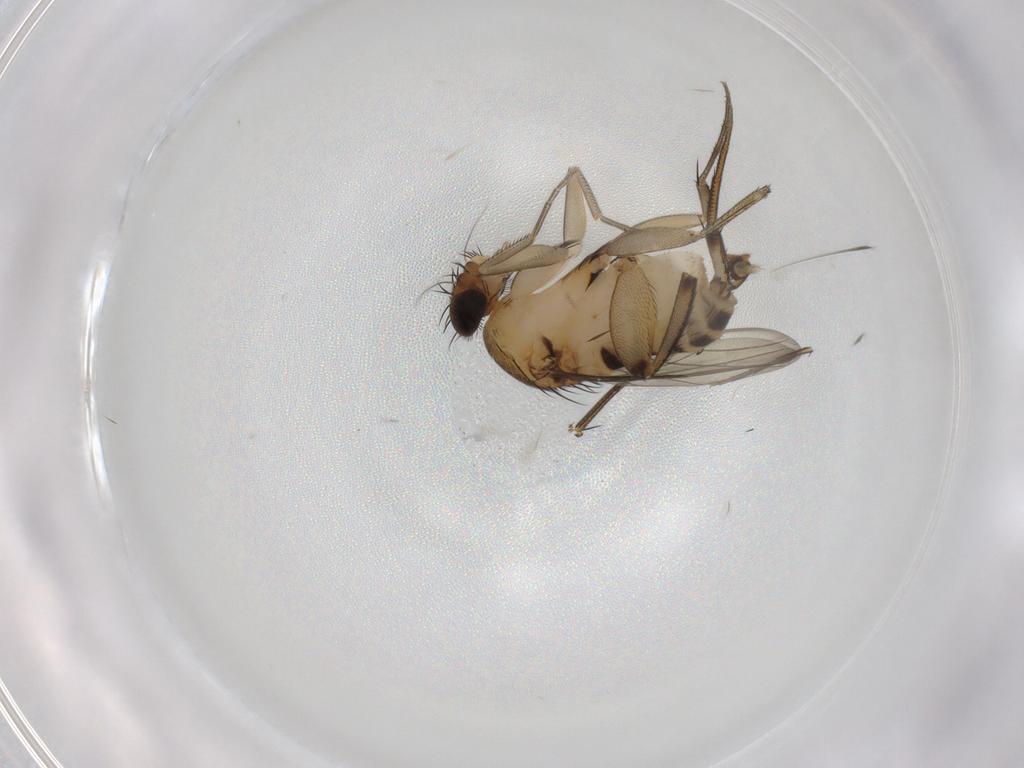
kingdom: Animalia
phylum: Arthropoda
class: Insecta
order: Diptera
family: Phoridae
